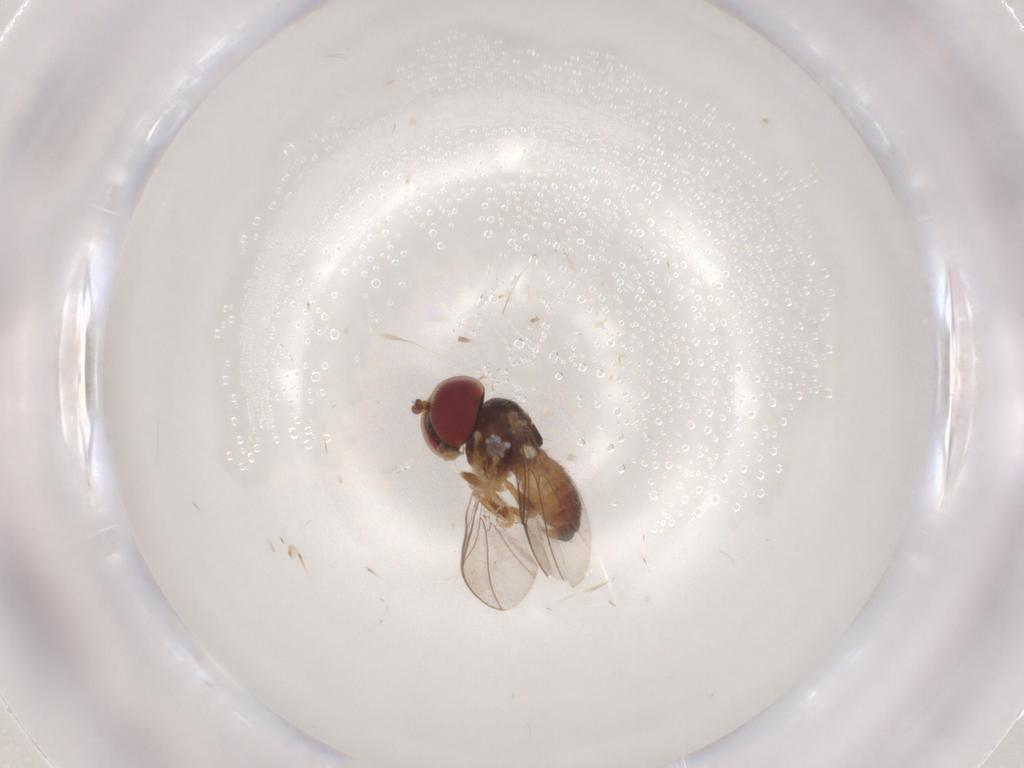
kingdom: Animalia
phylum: Arthropoda
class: Insecta
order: Diptera
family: Pipunculidae
